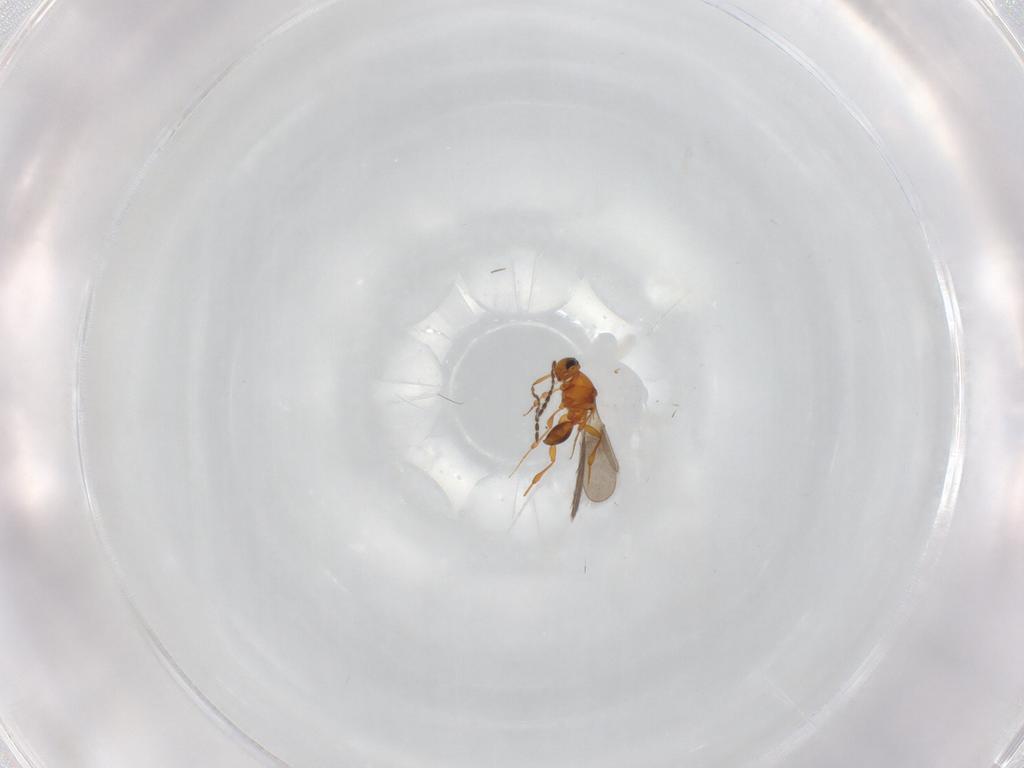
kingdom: Animalia
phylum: Arthropoda
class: Insecta
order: Hymenoptera
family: Platygastridae
